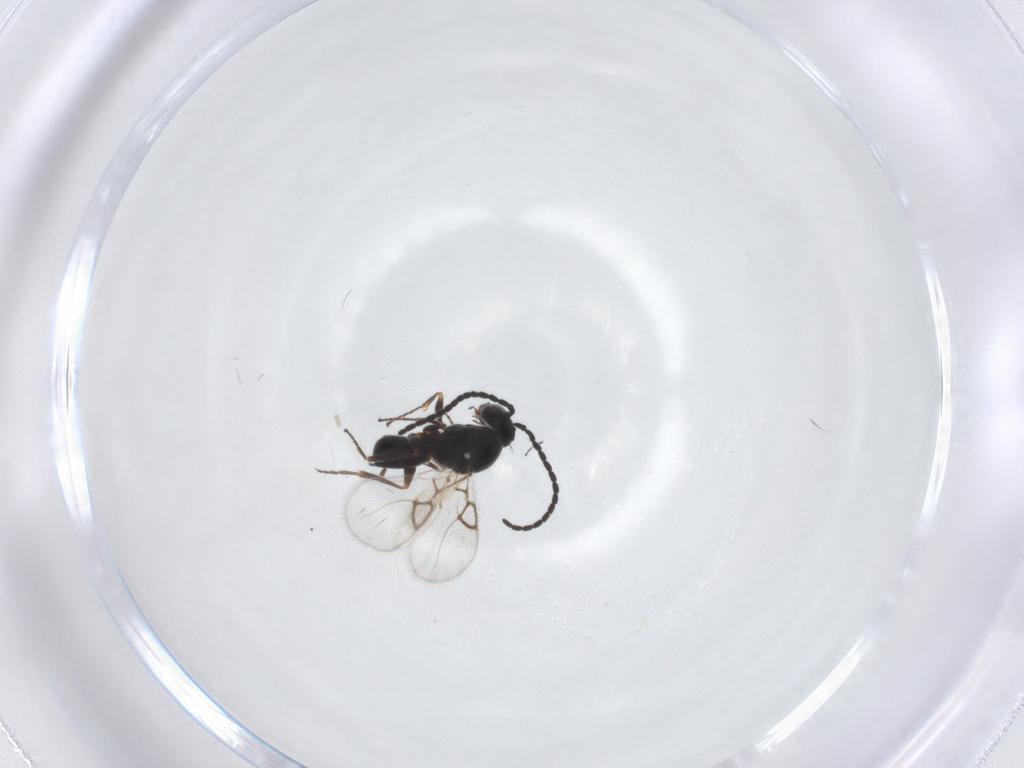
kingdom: Animalia
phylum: Arthropoda
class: Insecta
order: Hymenoptera
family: Figitidae
